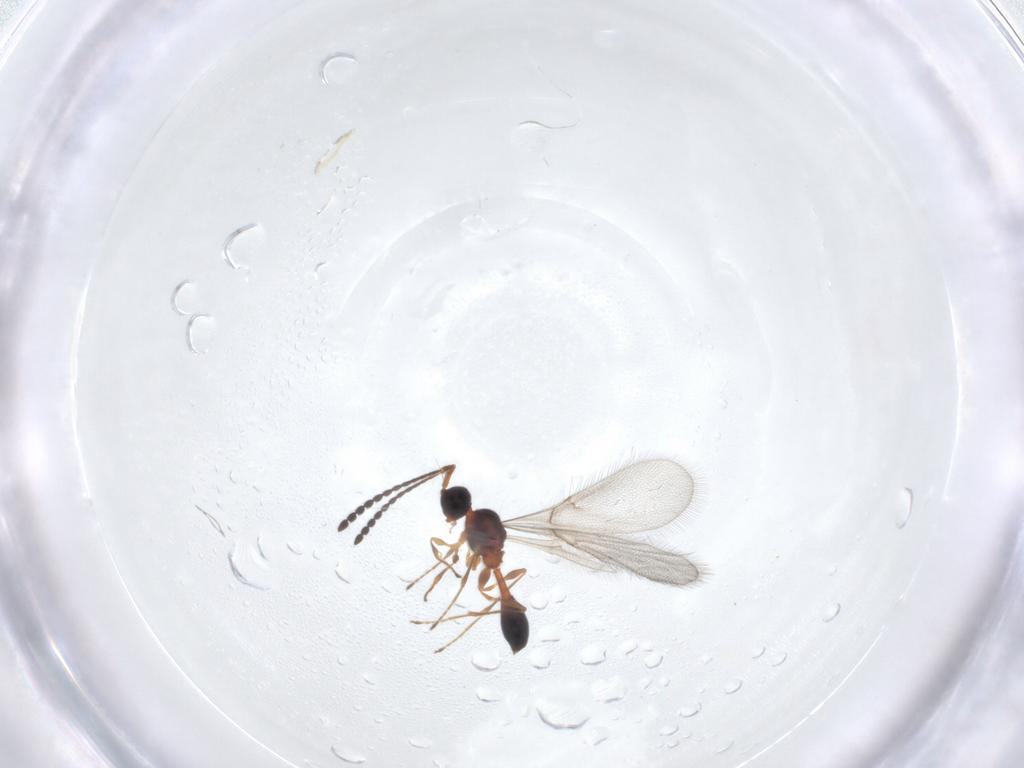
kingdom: Animalia
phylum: Arthropoda
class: Insecta
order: Hymenoptera
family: Diapriidae
